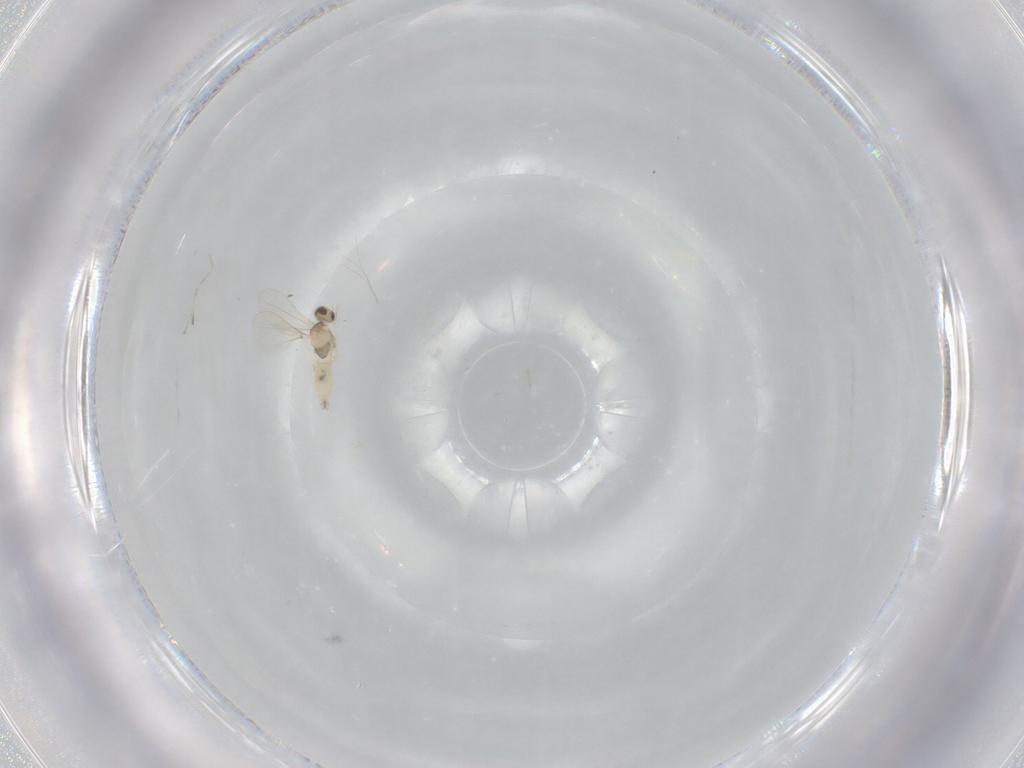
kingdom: Animalia
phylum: Arthropoda
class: Insecta
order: Diptera
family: Cecidomyiidae
